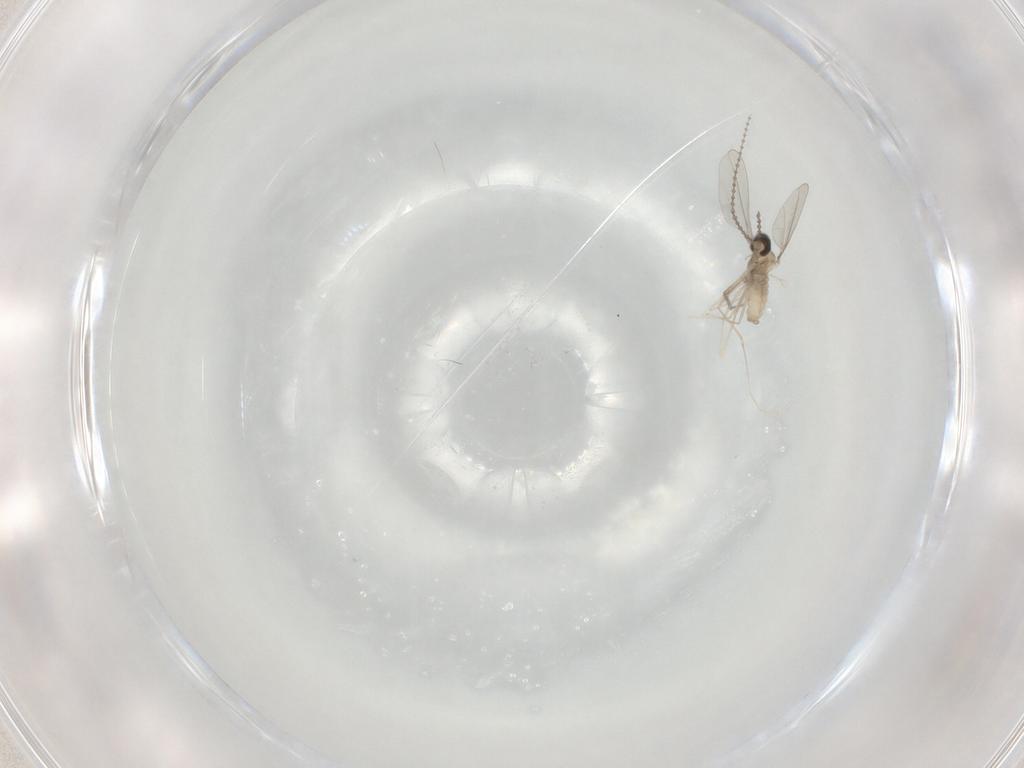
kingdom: Animalia
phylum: Arthropoda
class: Insecta
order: Diptera
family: Cecidomyiidae
